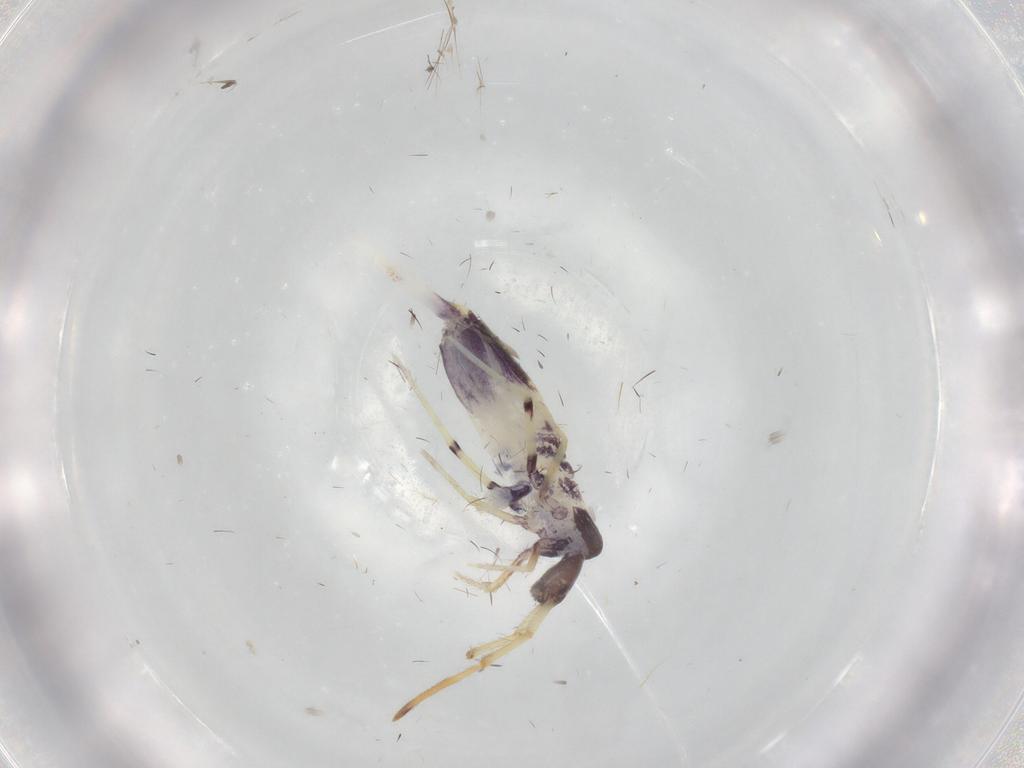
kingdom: Animalia
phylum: Arthropoda
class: Collembola
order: Entomobryomorpha
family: Entomobryidae
